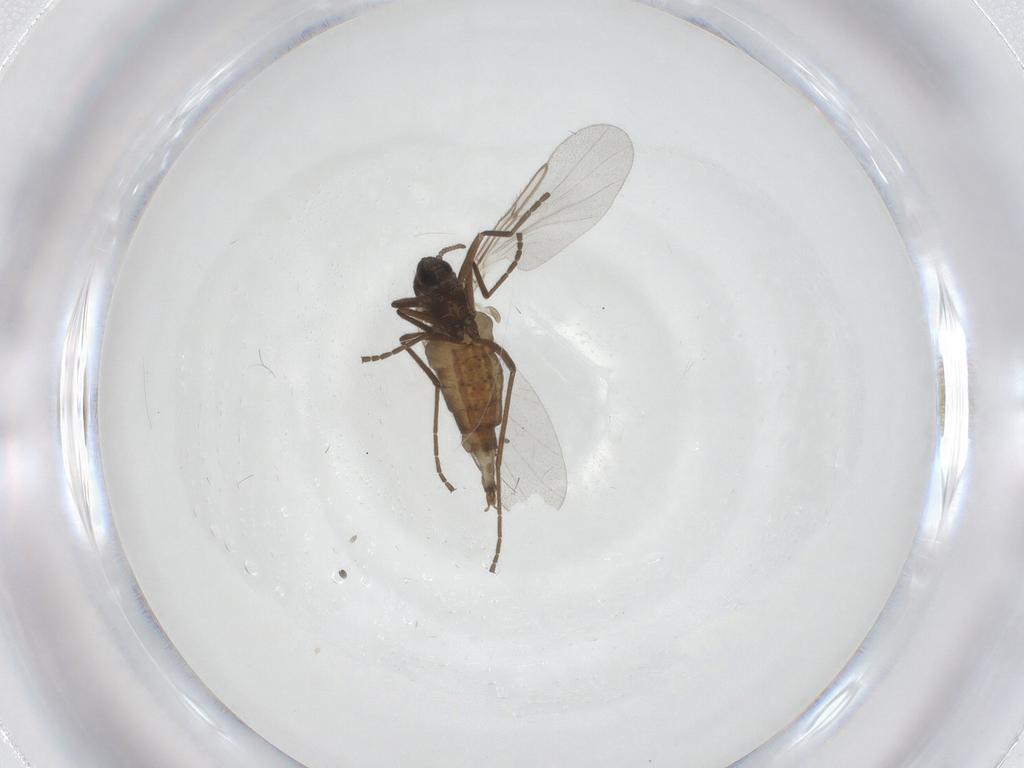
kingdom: Animalia
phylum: Arthropoda
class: Insecta
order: Diptera
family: Cecidomyiidae
